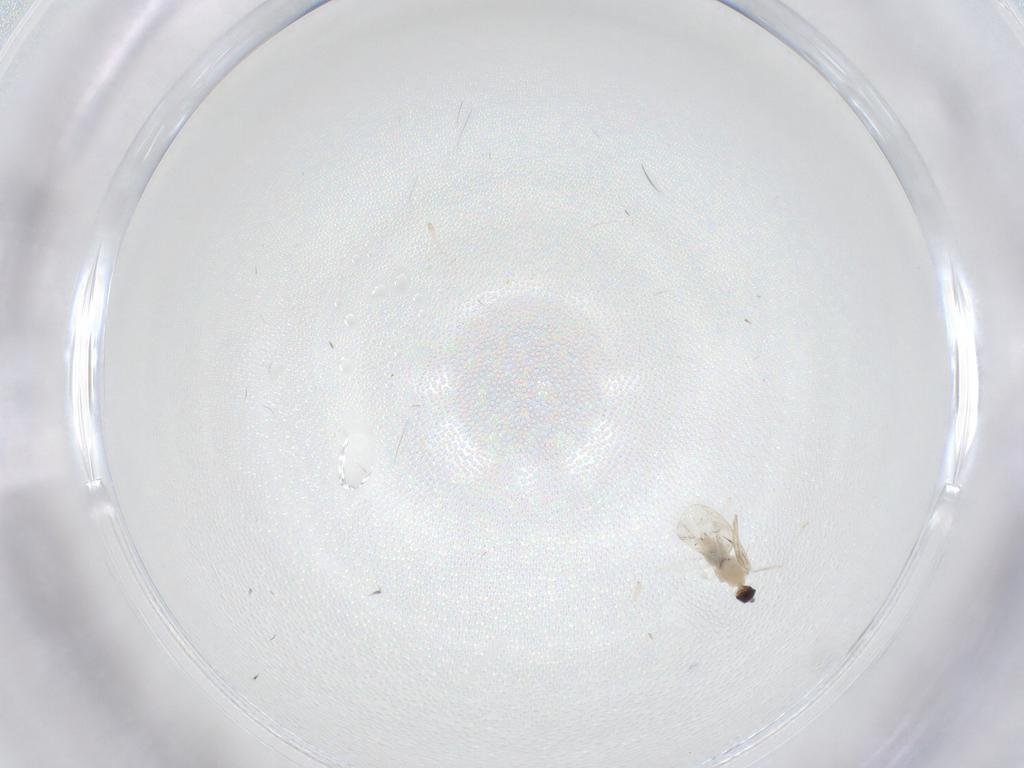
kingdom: Animalia
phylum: Arthropoda
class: Insecta
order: Diptera
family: Cecidomyiidae
